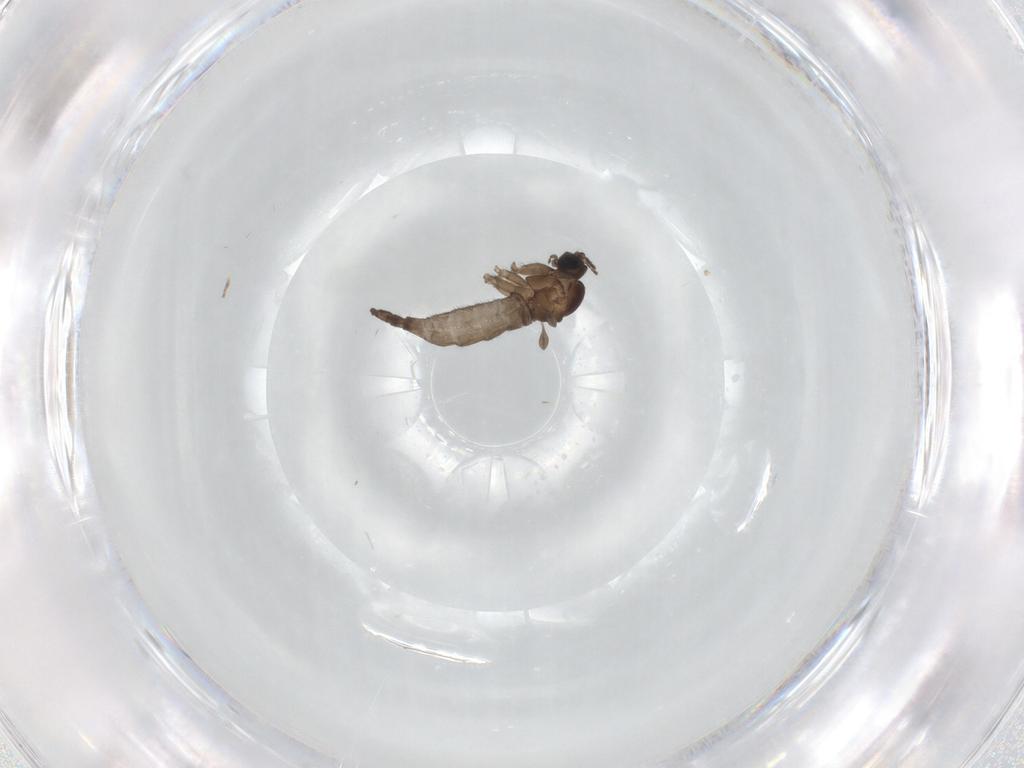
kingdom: Animalia
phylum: Arthropoda
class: Insecta
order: Diptera
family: Sciaridae
